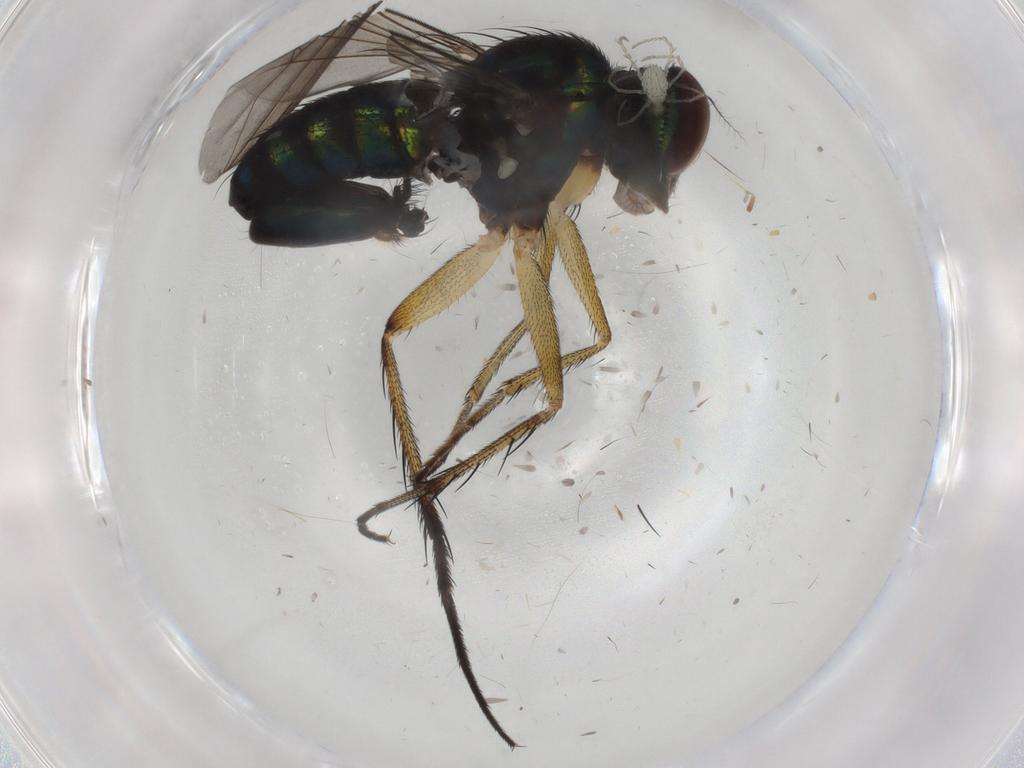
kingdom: Animalia
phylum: Arthropoda
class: Insecta
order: Diptera
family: Dolichopodidae
